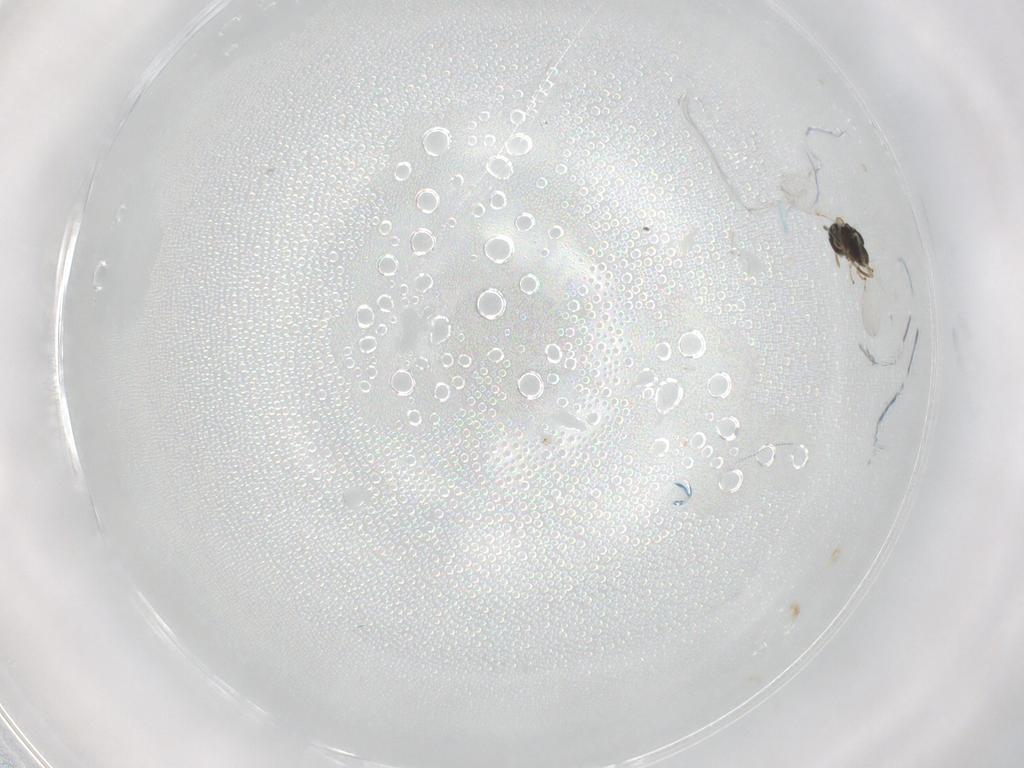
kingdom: Animalia
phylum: Arthropoda
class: Insecta
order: Hymenoptera
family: Encyrtidae
